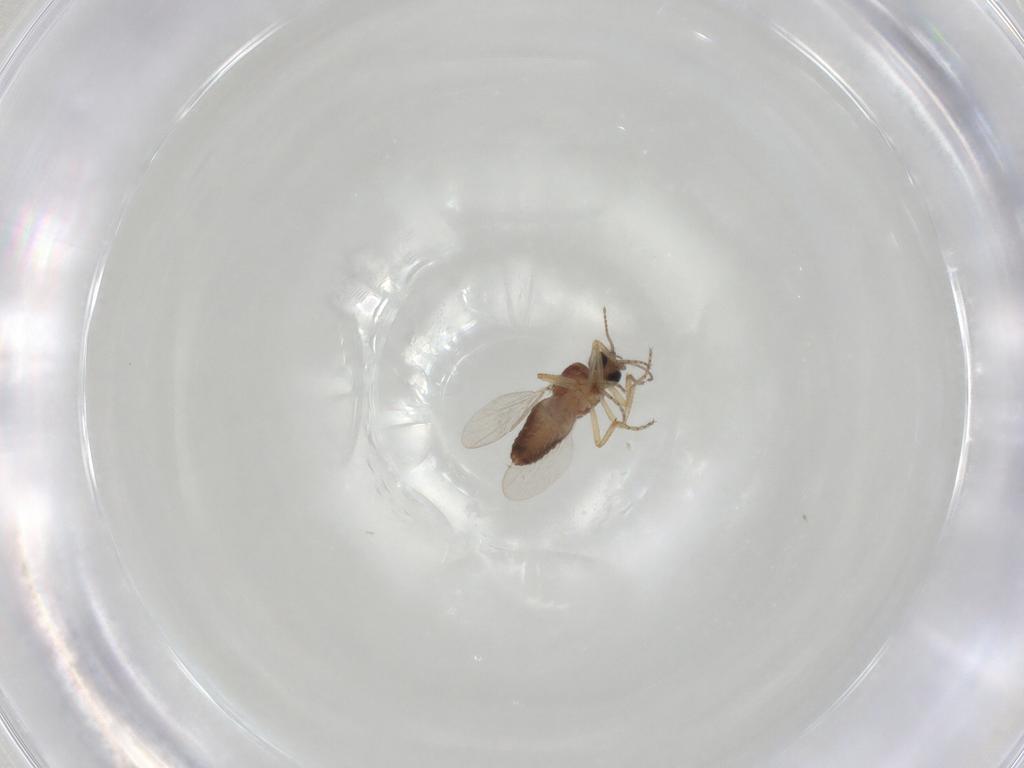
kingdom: Animalia
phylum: Arthropoda
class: Insecta
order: Diptera
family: Ceratopogonidae
